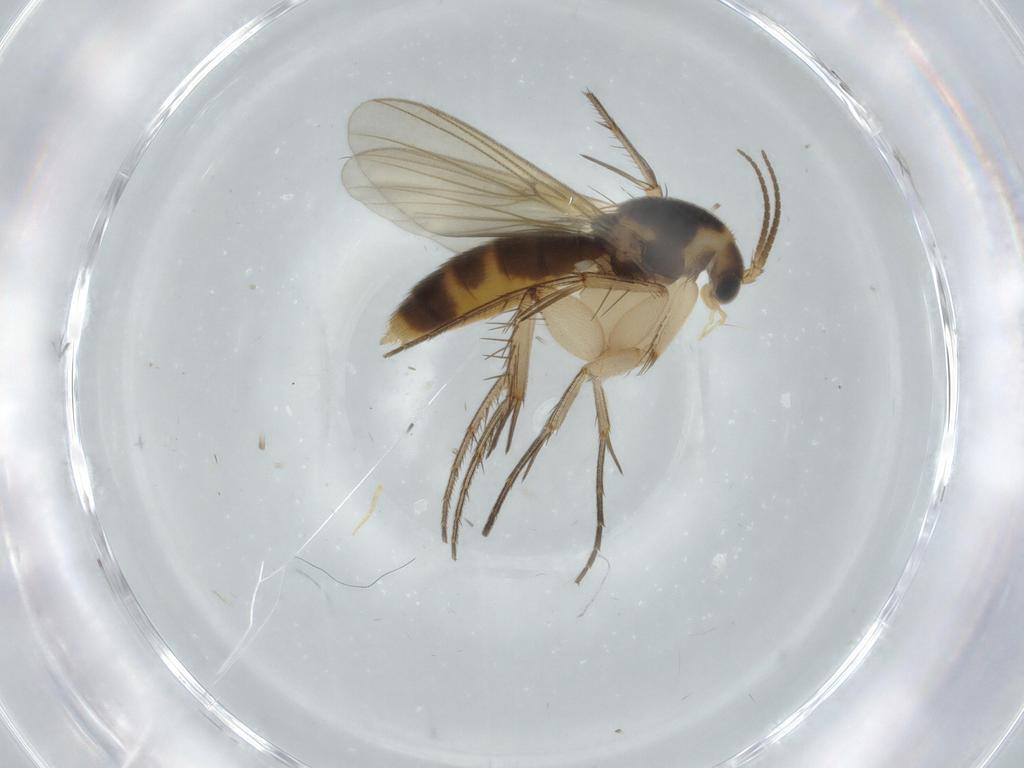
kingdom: Animalia
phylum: Arthropoda
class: Insecta
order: Diptera
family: Mycetophilidae
